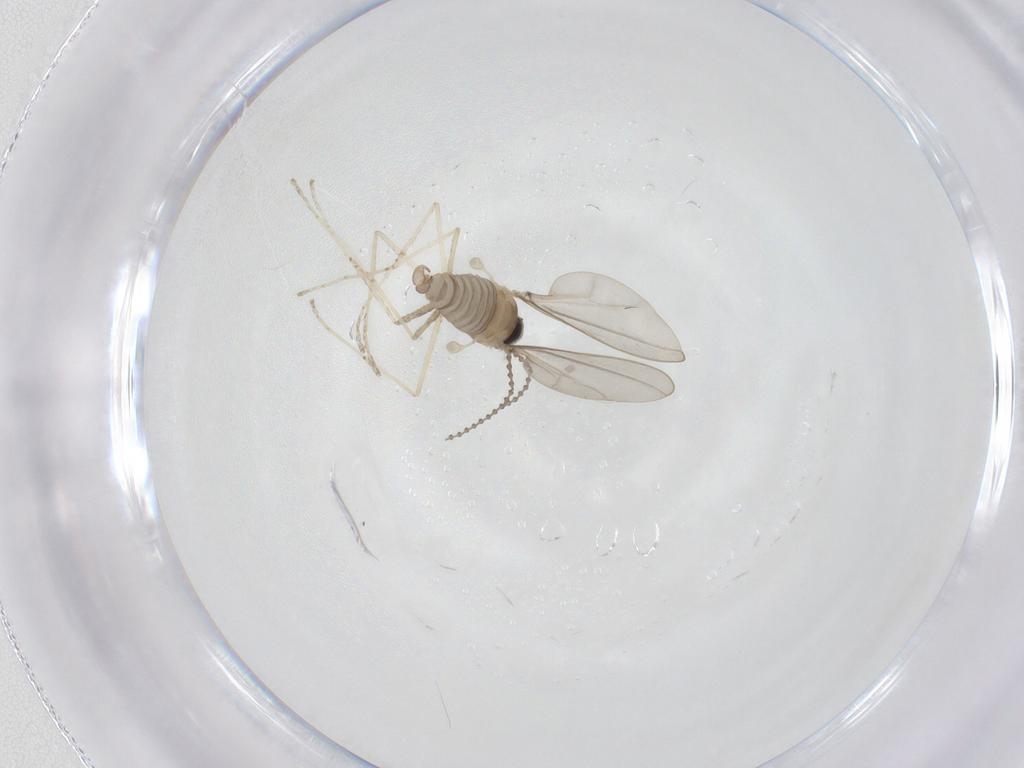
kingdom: Animalia
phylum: Arthropoda
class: Insecta
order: Diptera
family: Cecidomyiidae
